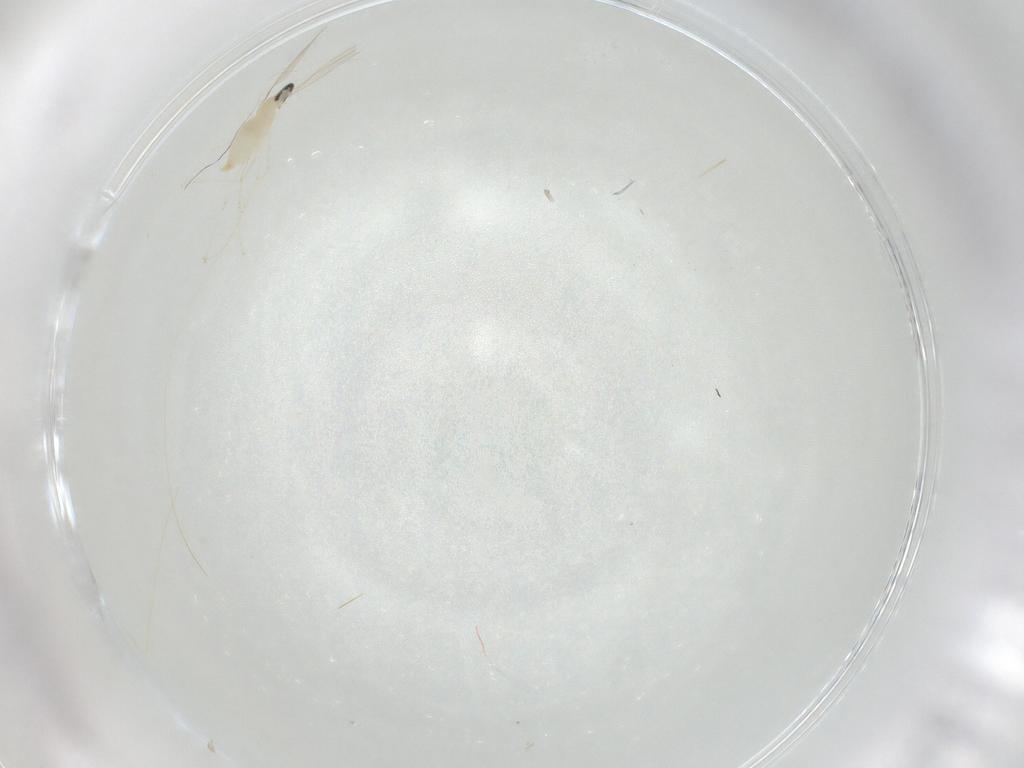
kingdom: Animalia
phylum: Arthropoda
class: Insecta
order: Diptera
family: Cecidomyiidae
